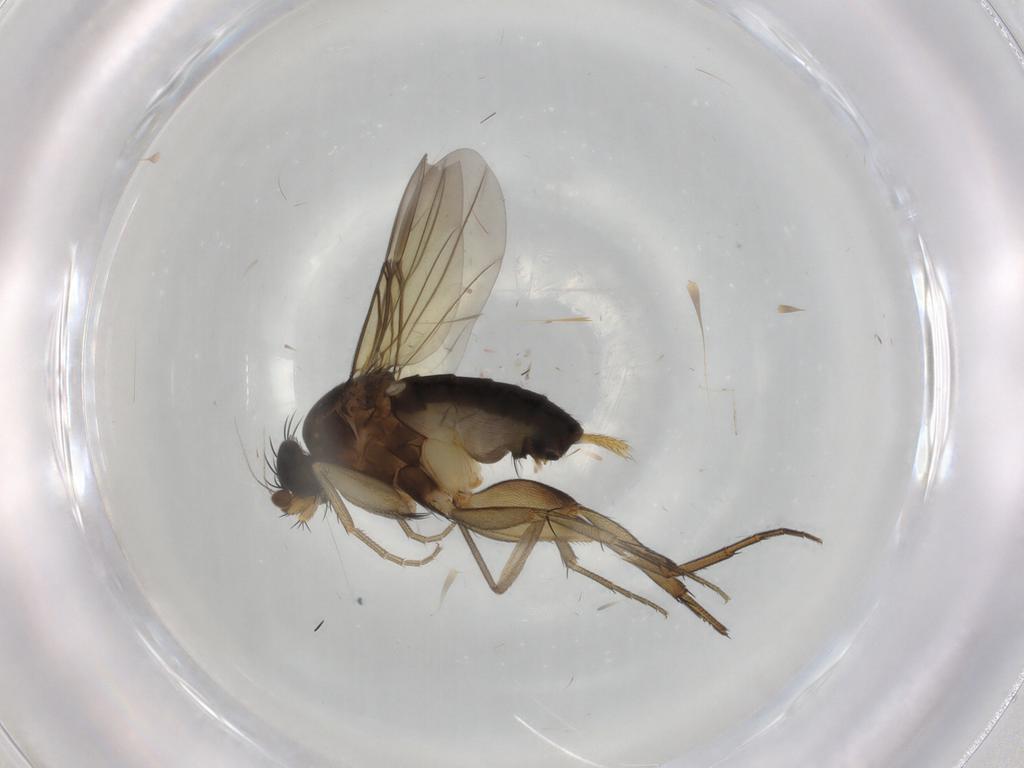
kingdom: Animalia
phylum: Arthropoda
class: Insecta
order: Diptera
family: Phoridae
